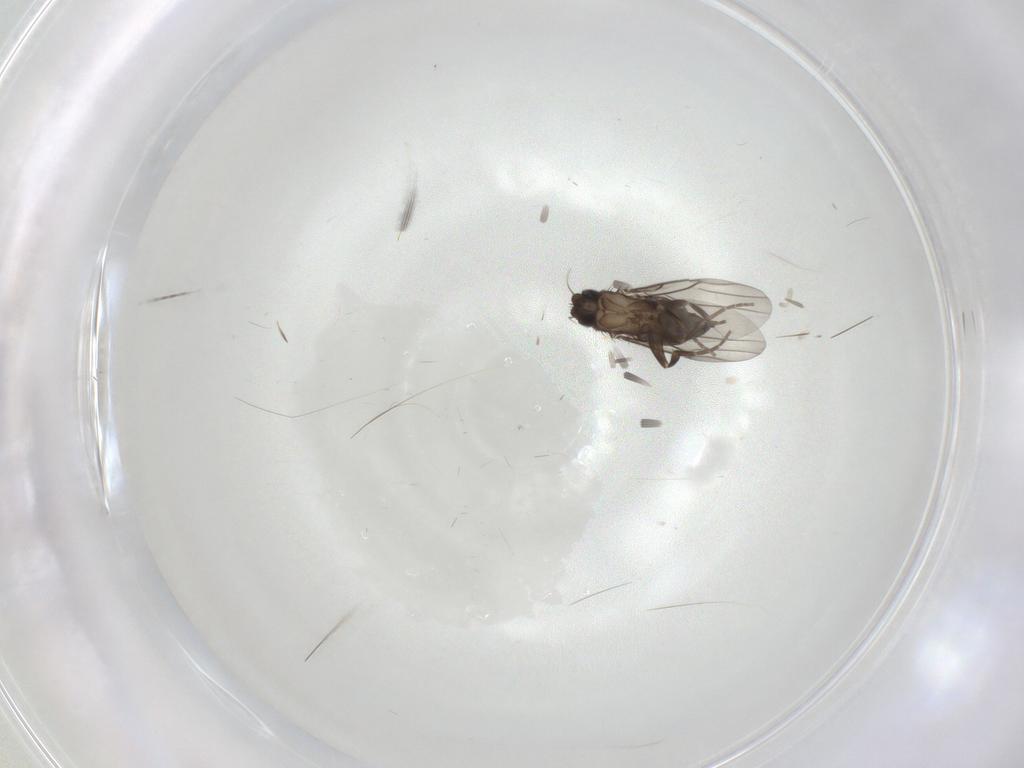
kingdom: Animalia
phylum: Arthropoda
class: Insecta
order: Diptera
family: Phoridae
